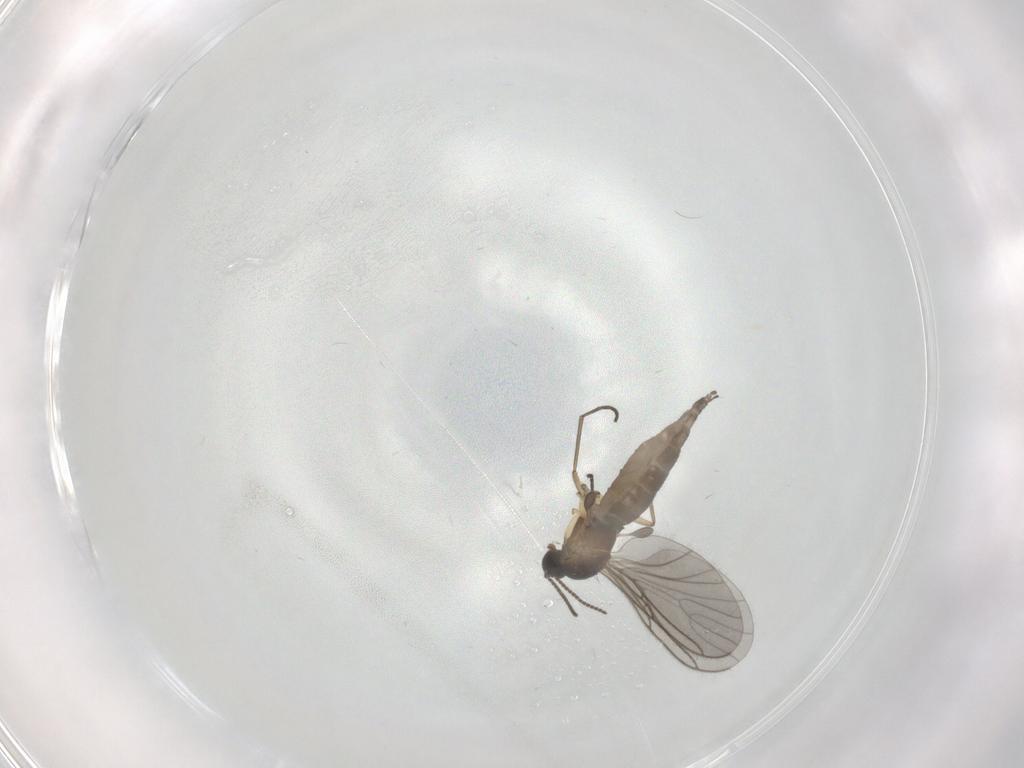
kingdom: Animalia
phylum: Arthropoda
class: Insecta
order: Diptera
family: Sciaridae
